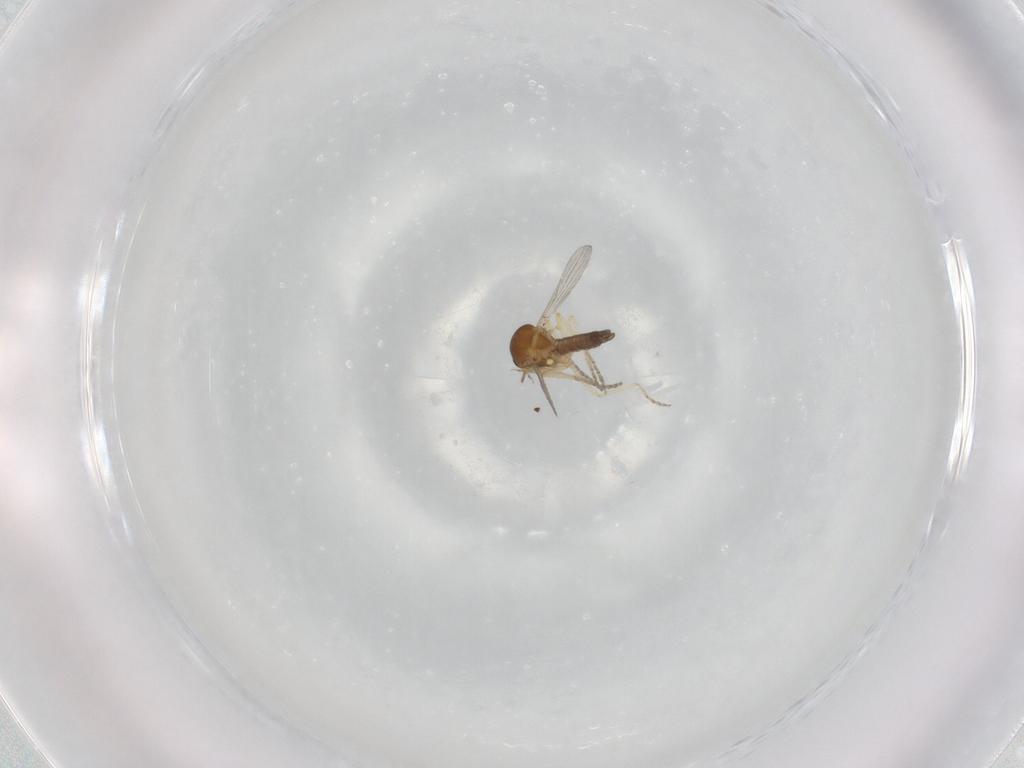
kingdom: Animalia
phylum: Arthropoda
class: Insecta
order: Diptera
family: Ceratopogonidae
